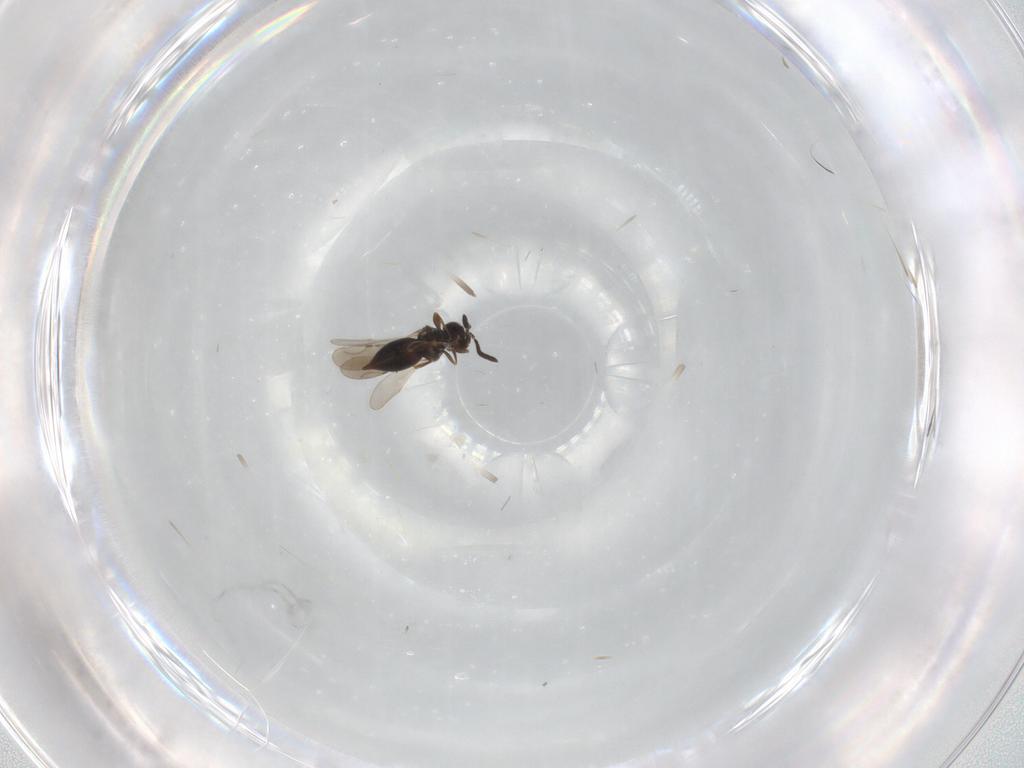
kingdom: Animalia
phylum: Arthropoda
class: Insecta
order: Hymenoptera
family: Ceraphronidae
